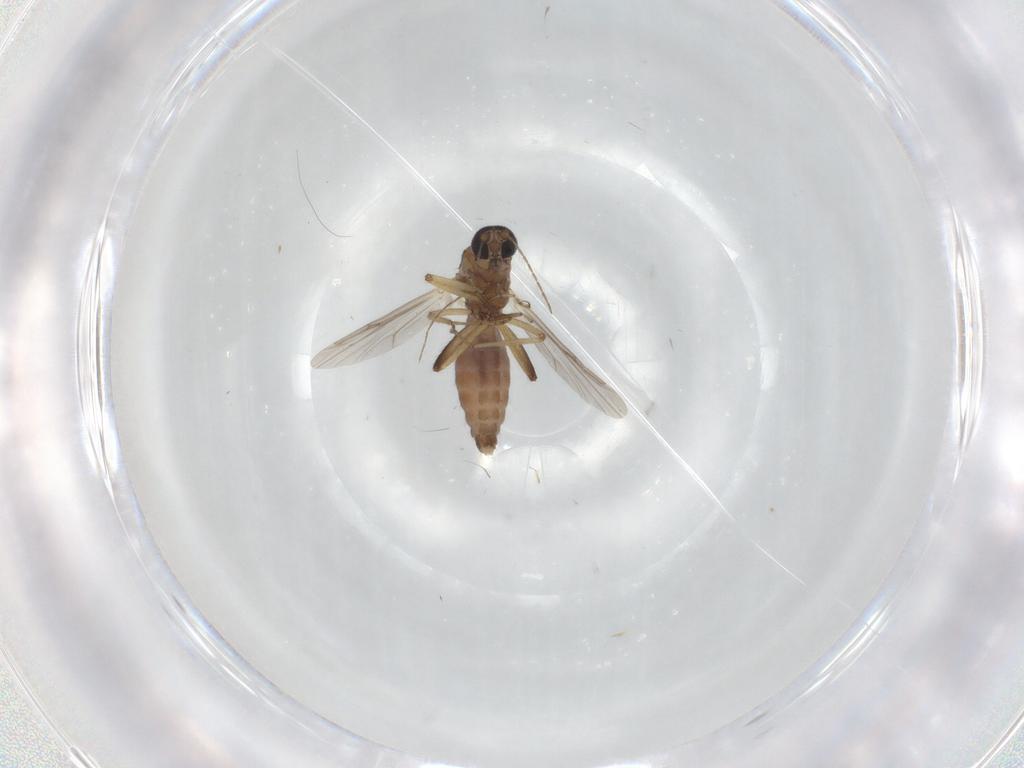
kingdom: Animalia
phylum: Arthropoda
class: Insecta
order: Diptera
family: Ceratopogonidae
